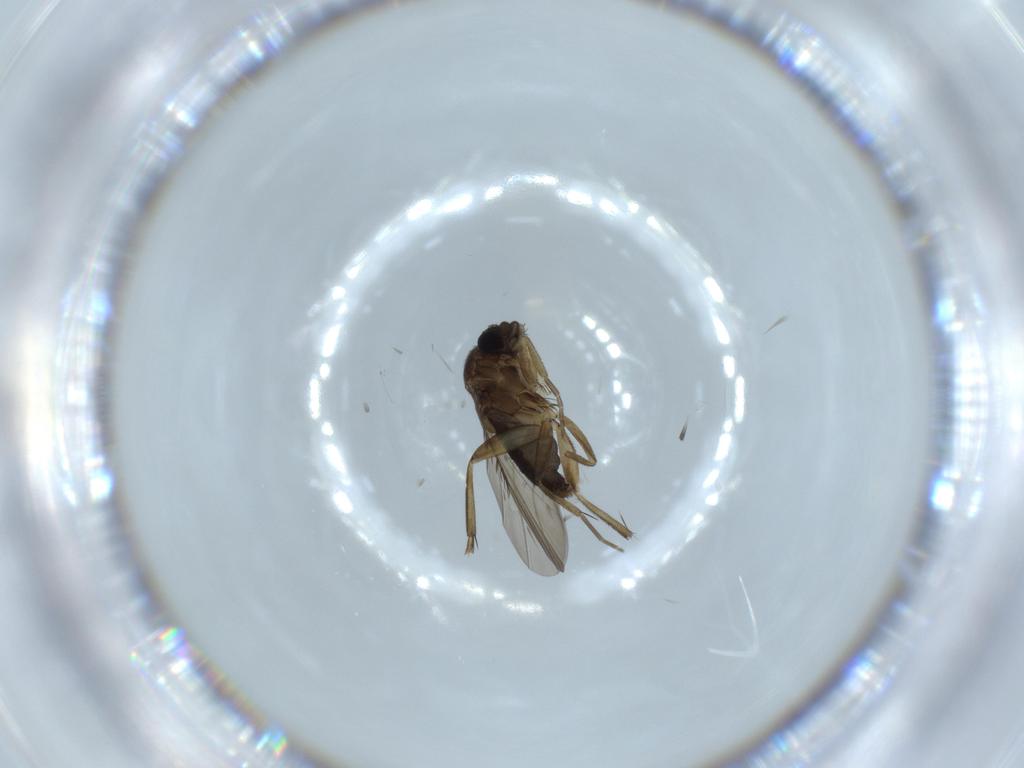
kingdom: Animalia
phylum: Arthropoda
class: Insecta
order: Diptera
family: Phoridae
